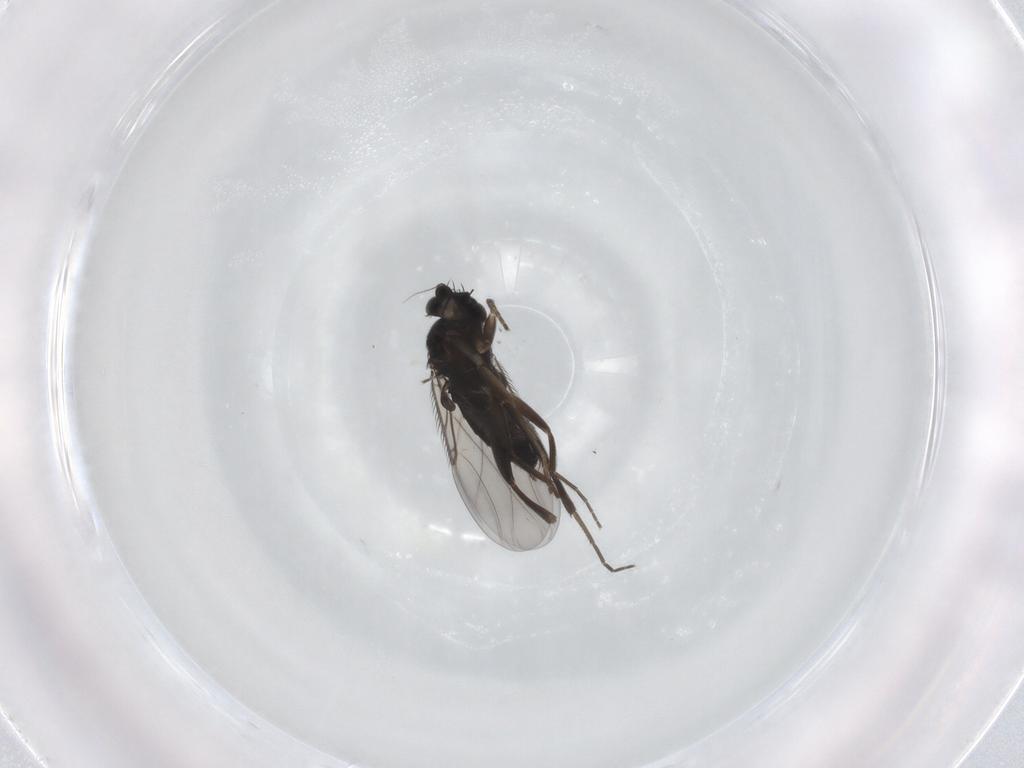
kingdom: Animalia
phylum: Arthropoda
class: Insecta
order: Diptera
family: Phoridae
